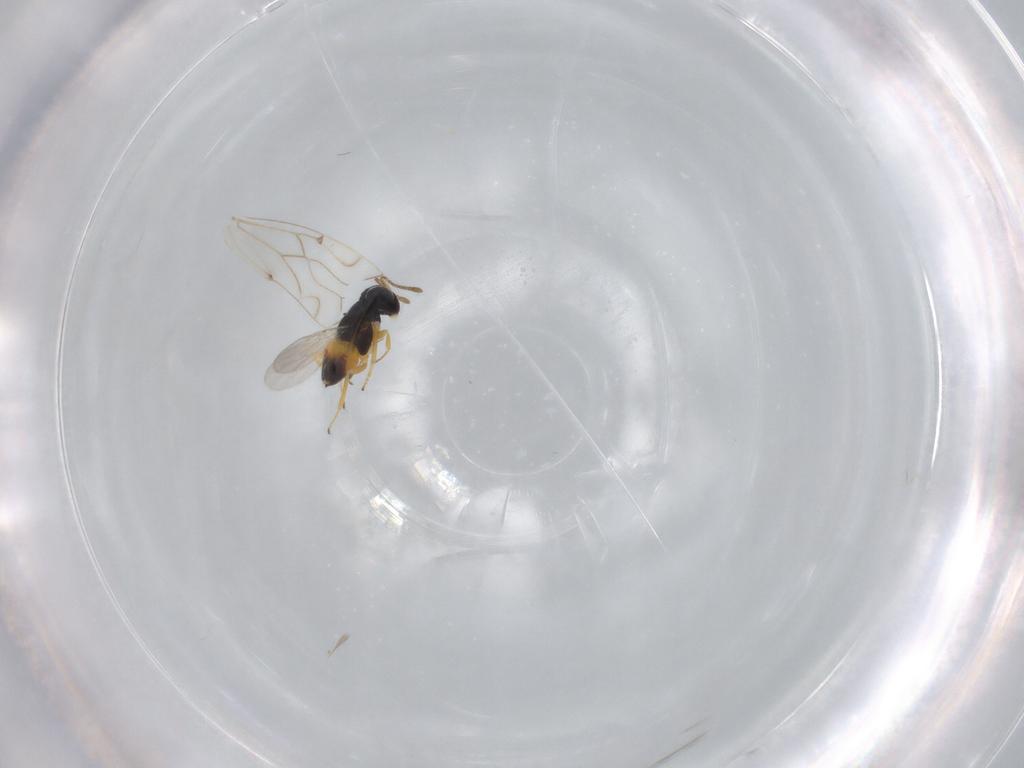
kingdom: Animalia
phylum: Arthropoda
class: Insecta
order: Hymenoptera
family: Encyrtidae
